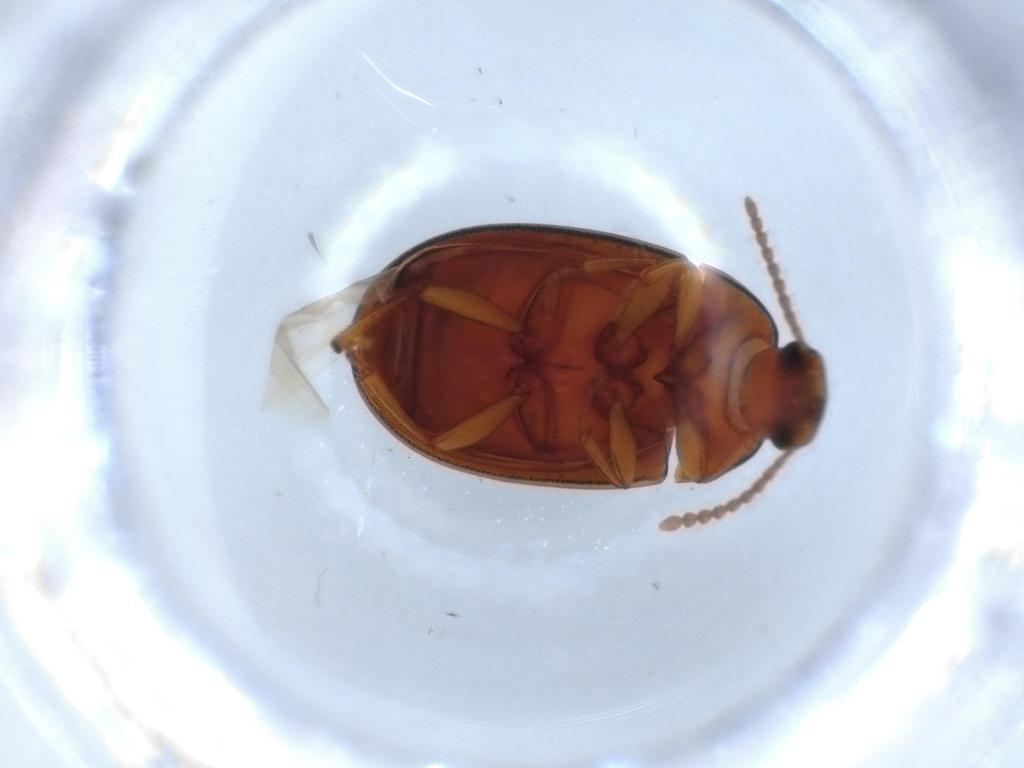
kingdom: Animalia
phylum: Arthropoda
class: Insecta
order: Coleoptera
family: Tenebrionidae
